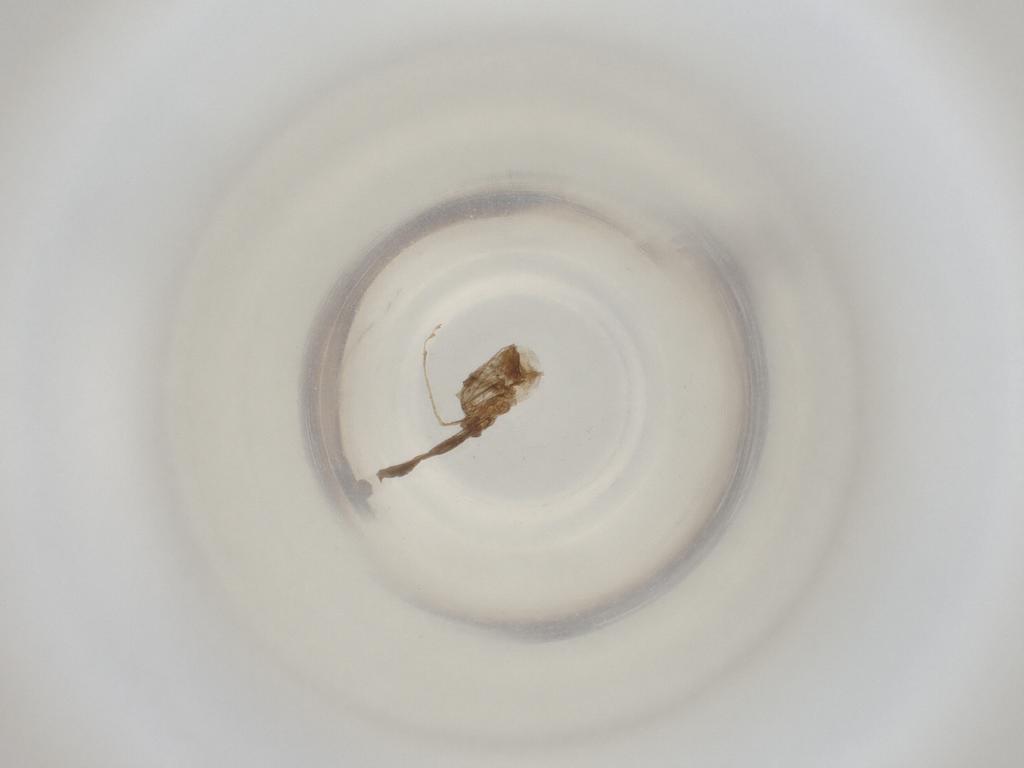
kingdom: Animalia
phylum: Arthropoda
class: Insecta
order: Diptera
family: Cecidomyiidae
